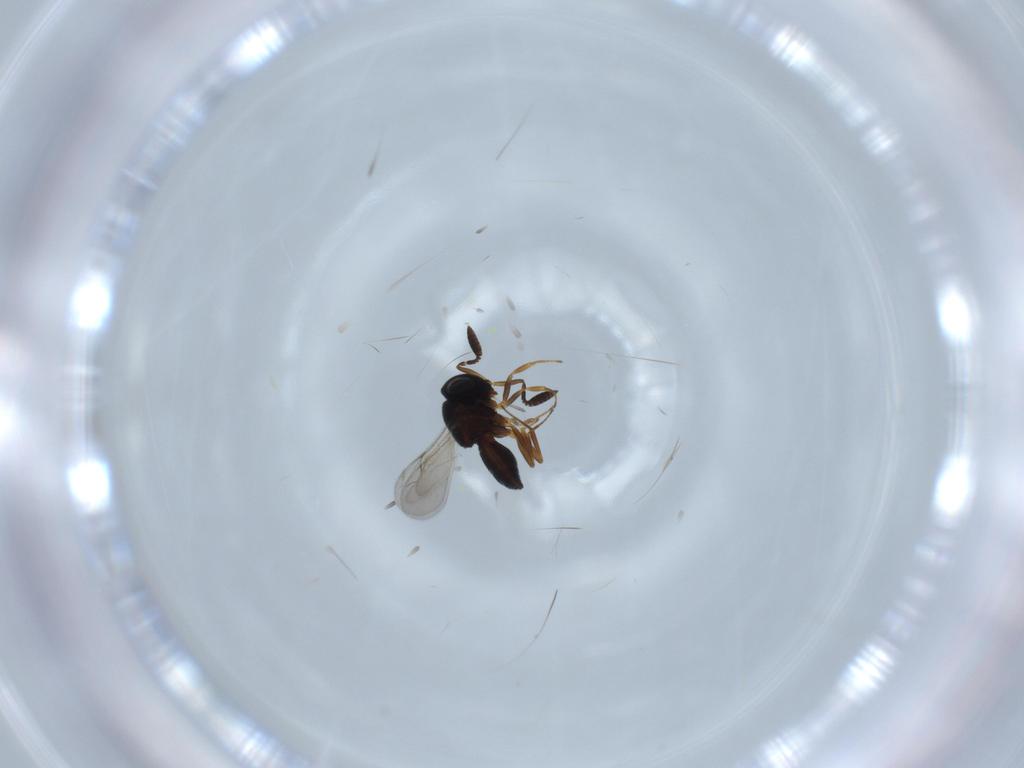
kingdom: Animalia
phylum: Arthropoda
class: Insecta
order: Coleoptera
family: Curculionidae
